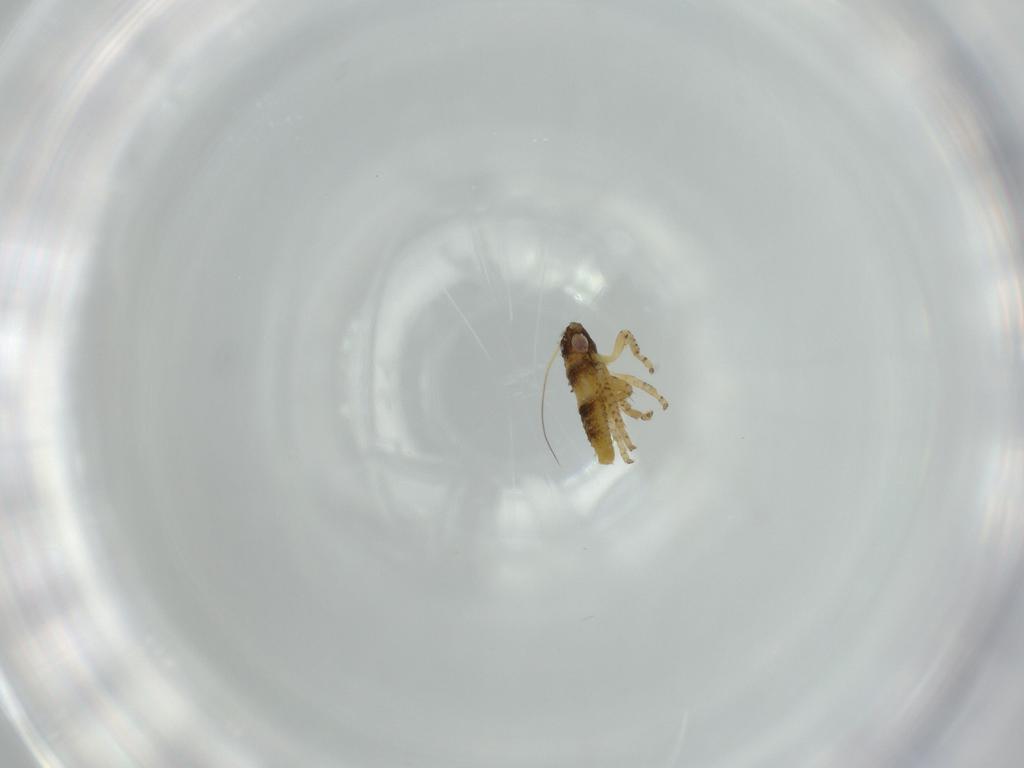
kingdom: Animalia
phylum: Arthropoda
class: Insecta
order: Hemiptera
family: Cicadellidae
